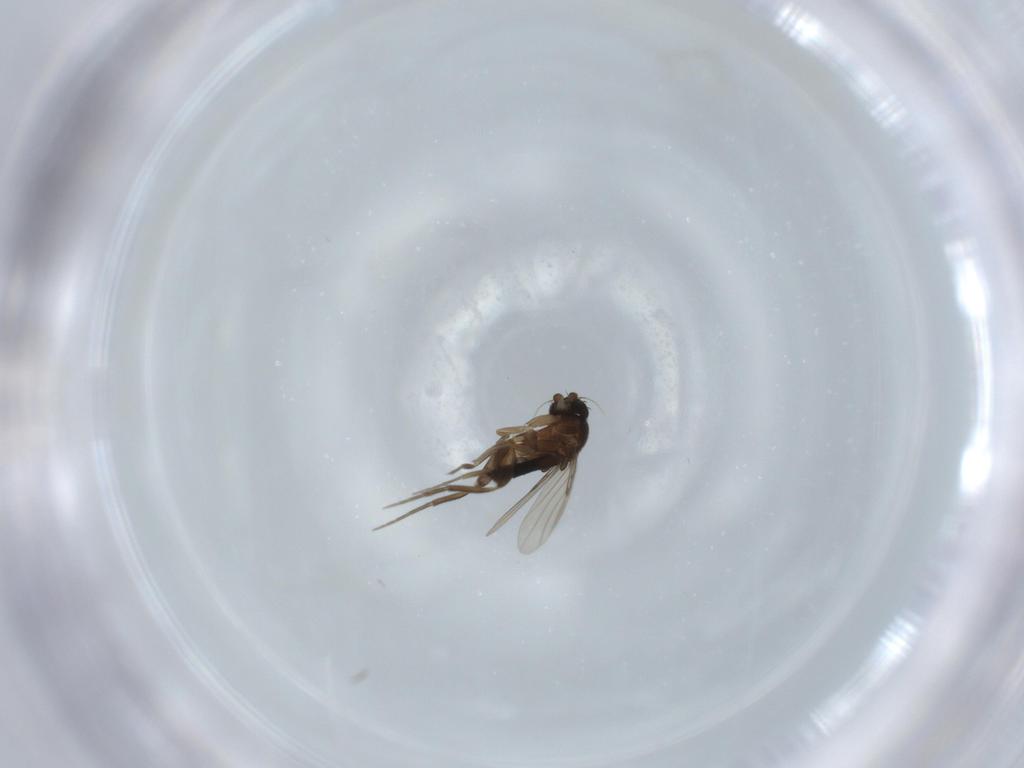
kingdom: Animalia
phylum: Arthropoda
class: Insecta
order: Diptera
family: Phoridae
